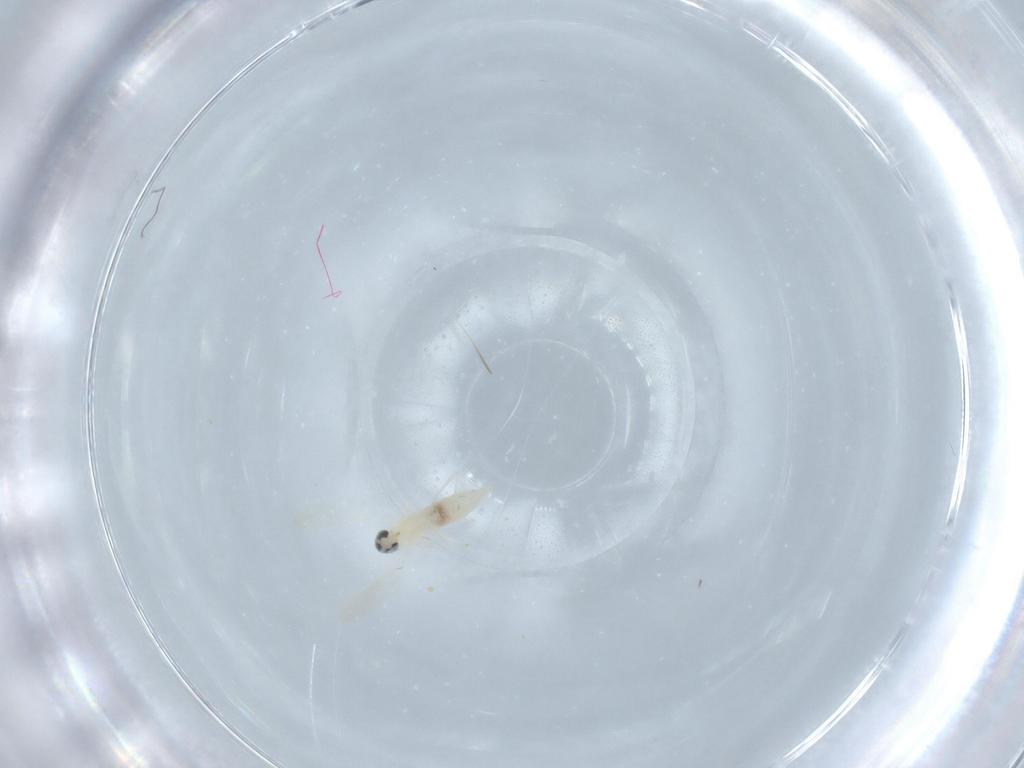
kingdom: Animalia
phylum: Arthropoda
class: Insecta
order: Diptera
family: Cecidomyiidae
